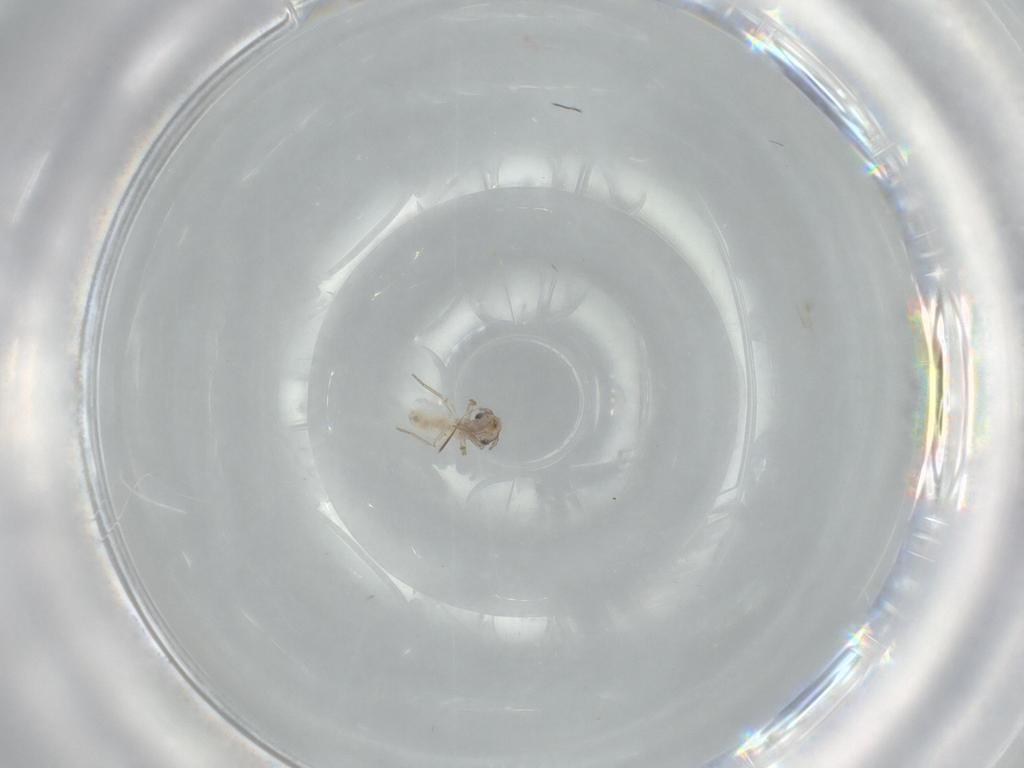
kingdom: Animalia
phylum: Arthropoda
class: Insecta
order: Psocodea
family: Lepidopsocidae
